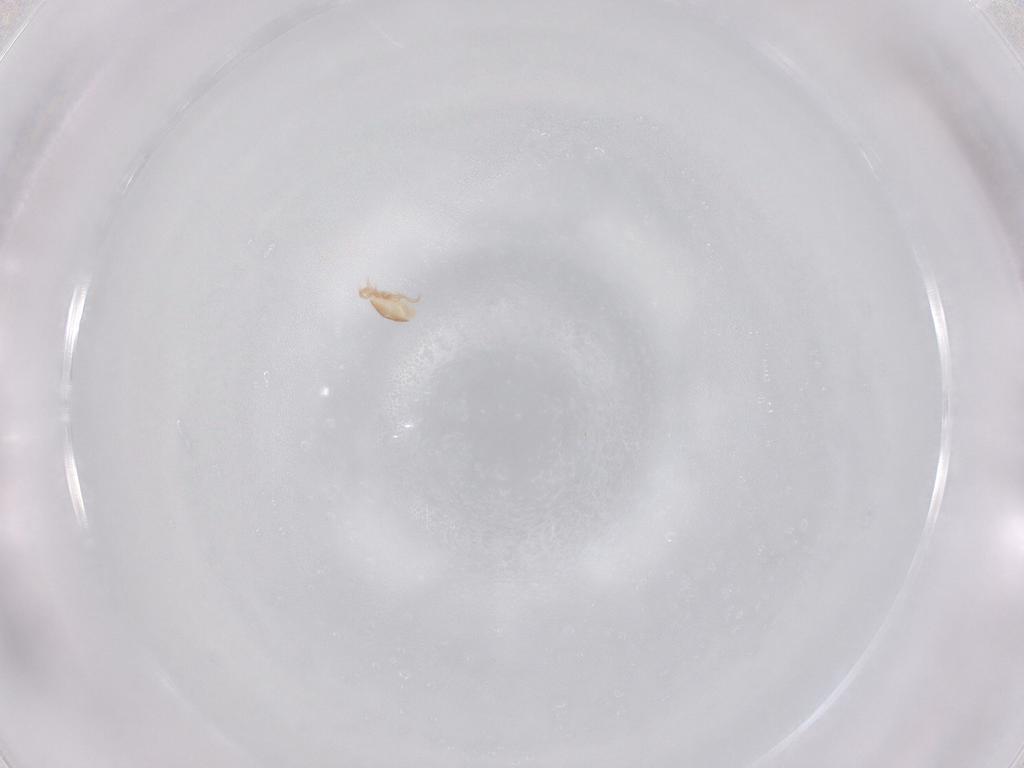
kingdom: Animalia
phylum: Arthropoda
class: Arachnida
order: Mesostigmata
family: Ascidae
